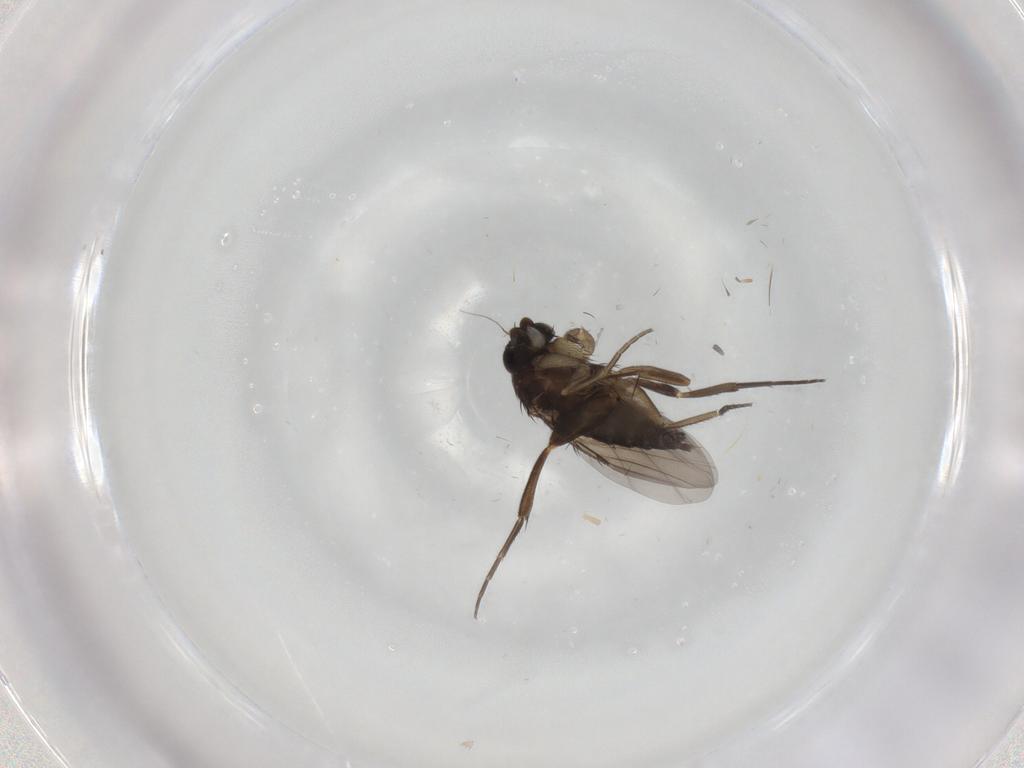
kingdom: Animalia
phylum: Arthropoda
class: Insecta
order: Diptera
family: Phoridae
